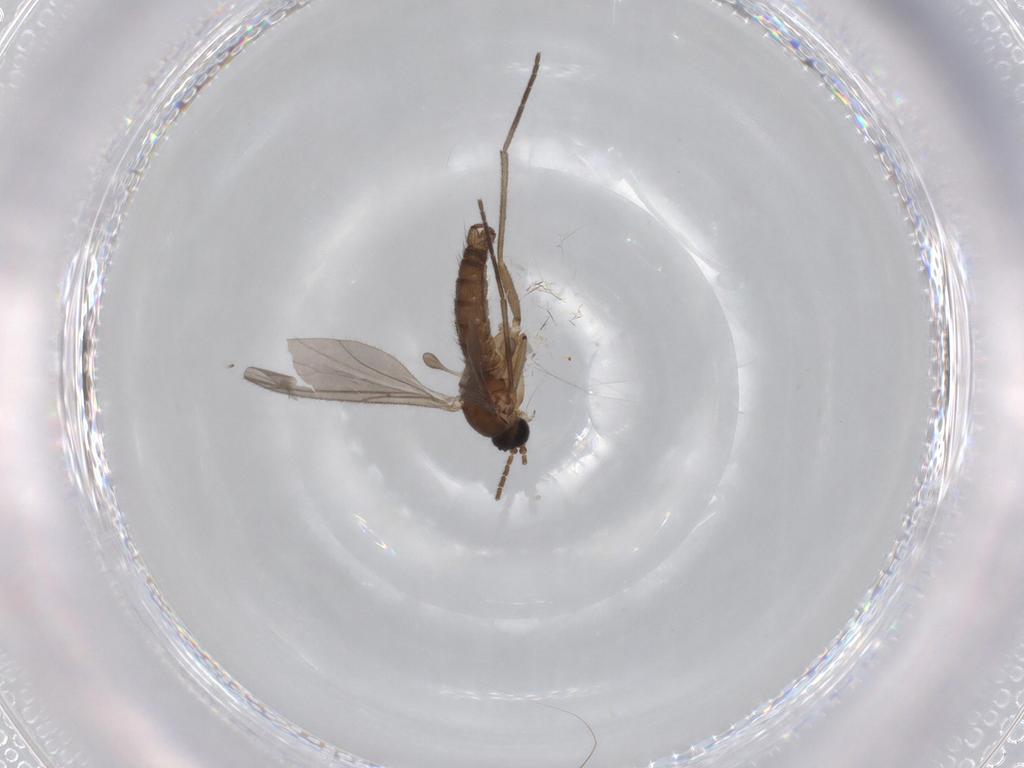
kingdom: Animalia
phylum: Arthropoda
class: Insecta
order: Diptera
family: Sciaridae
